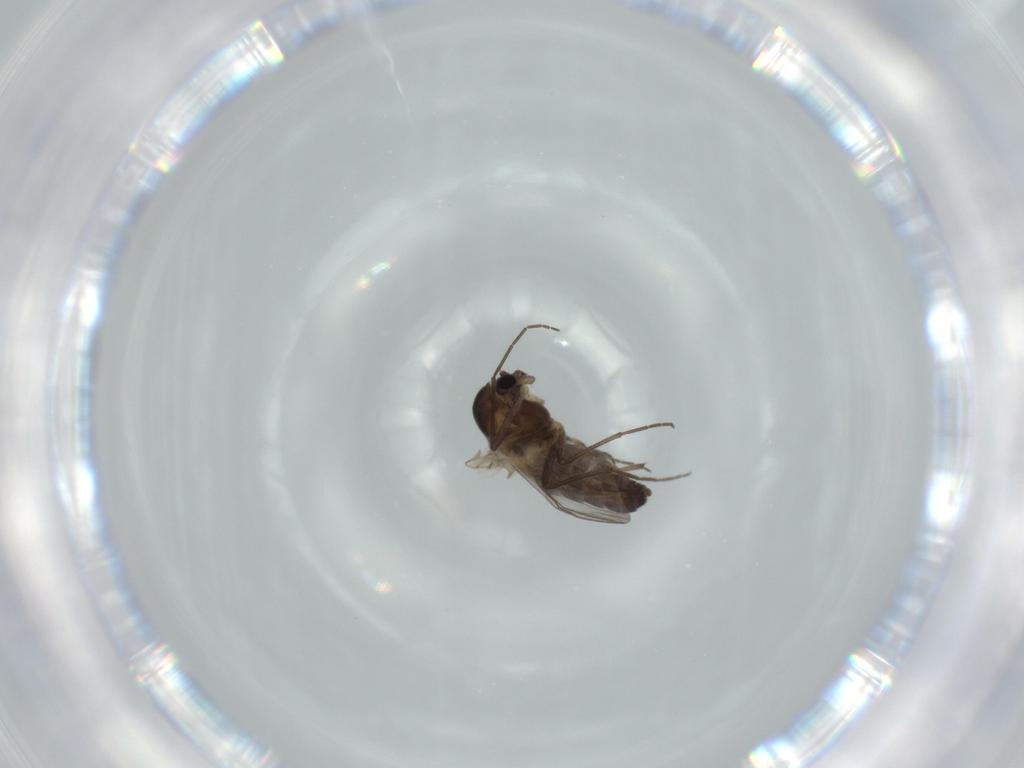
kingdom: Animalia
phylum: Arthropoda
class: Insecta
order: Diptera
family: Chironomidae
